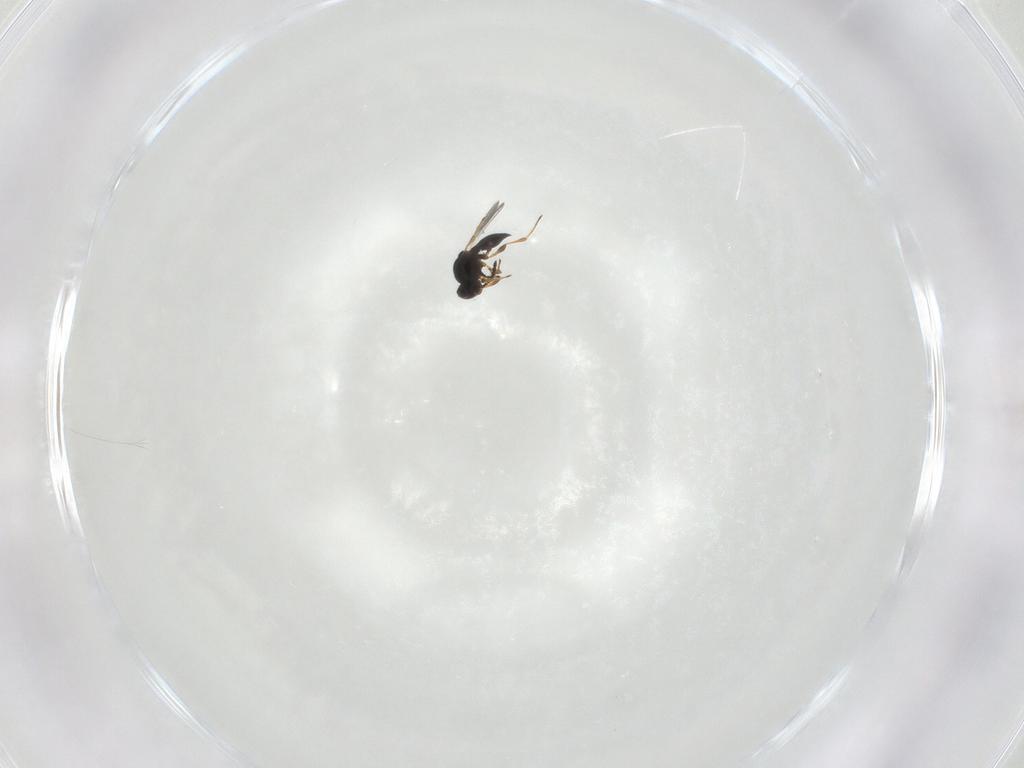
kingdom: Animalia
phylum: Arthropoda
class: Insecta
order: Hymenoptera
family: Platygastridae
